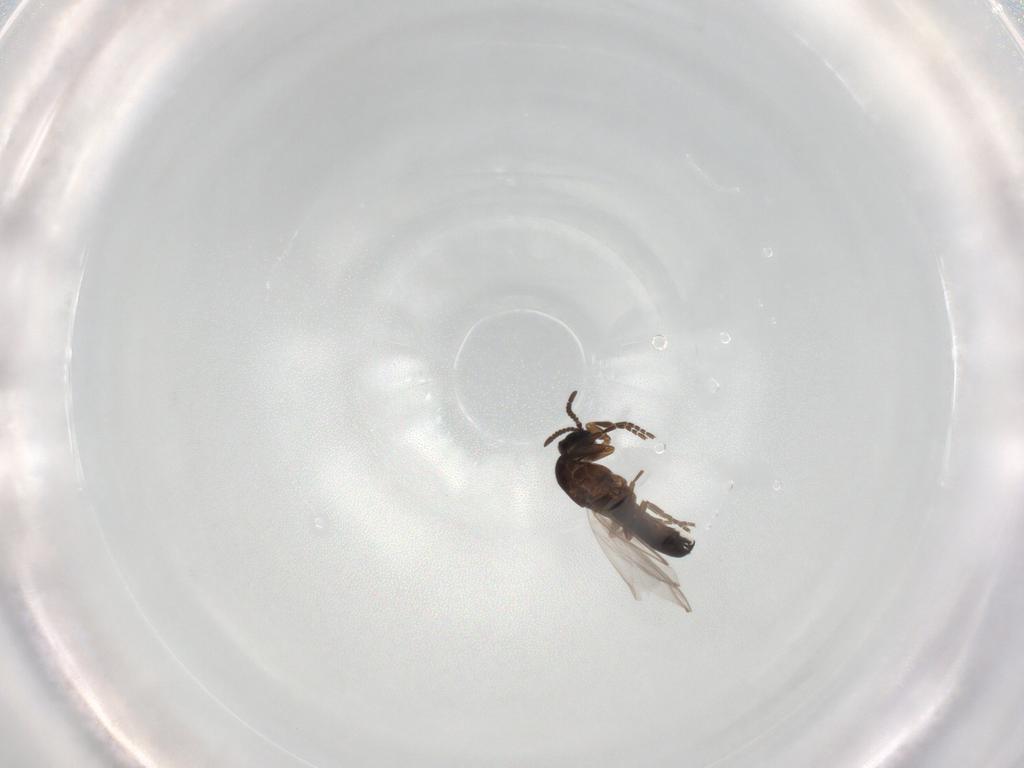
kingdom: Animalia
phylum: Arthropoda
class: Insecta
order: Diptera
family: Scatopsidae
